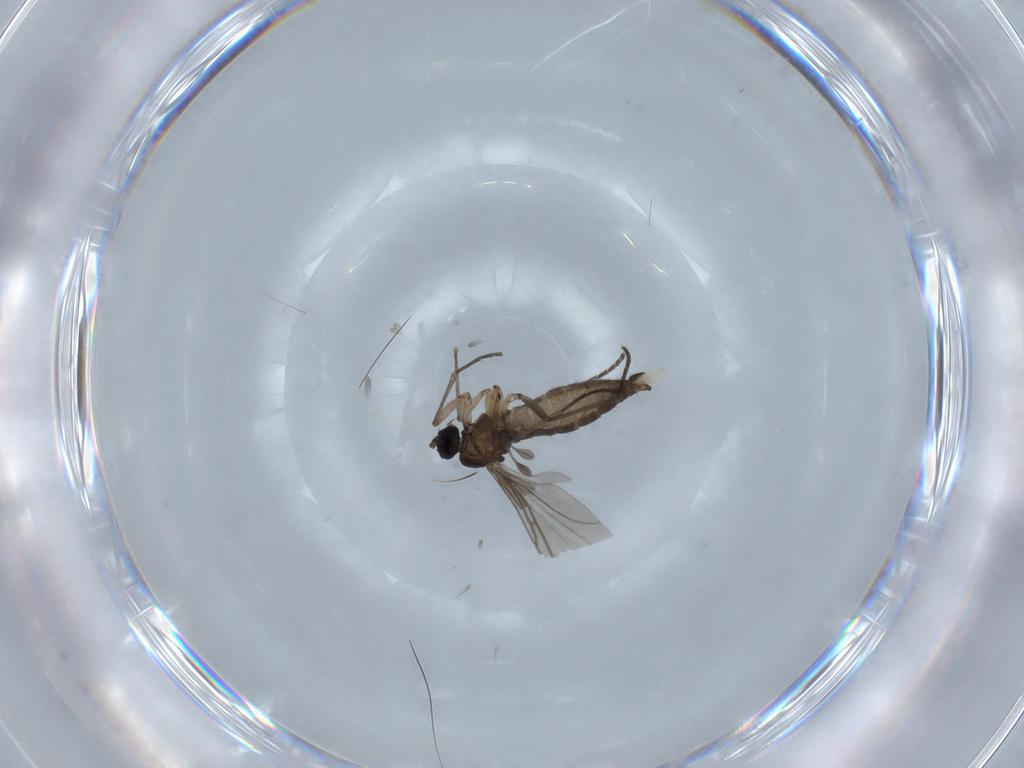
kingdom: Animalia
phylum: Arthropoda
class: Insecta
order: Diptera
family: Sciaridae
